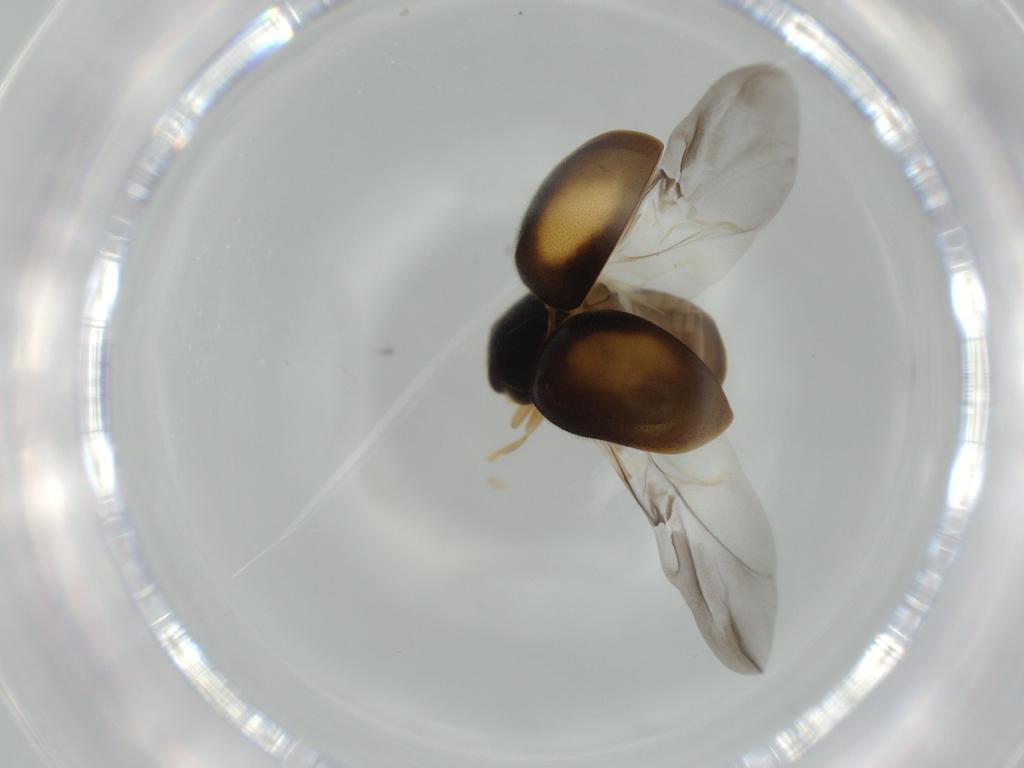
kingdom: Animalia
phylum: Arthropoda
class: Insecta
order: Coleoptera
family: Coccinellidae
